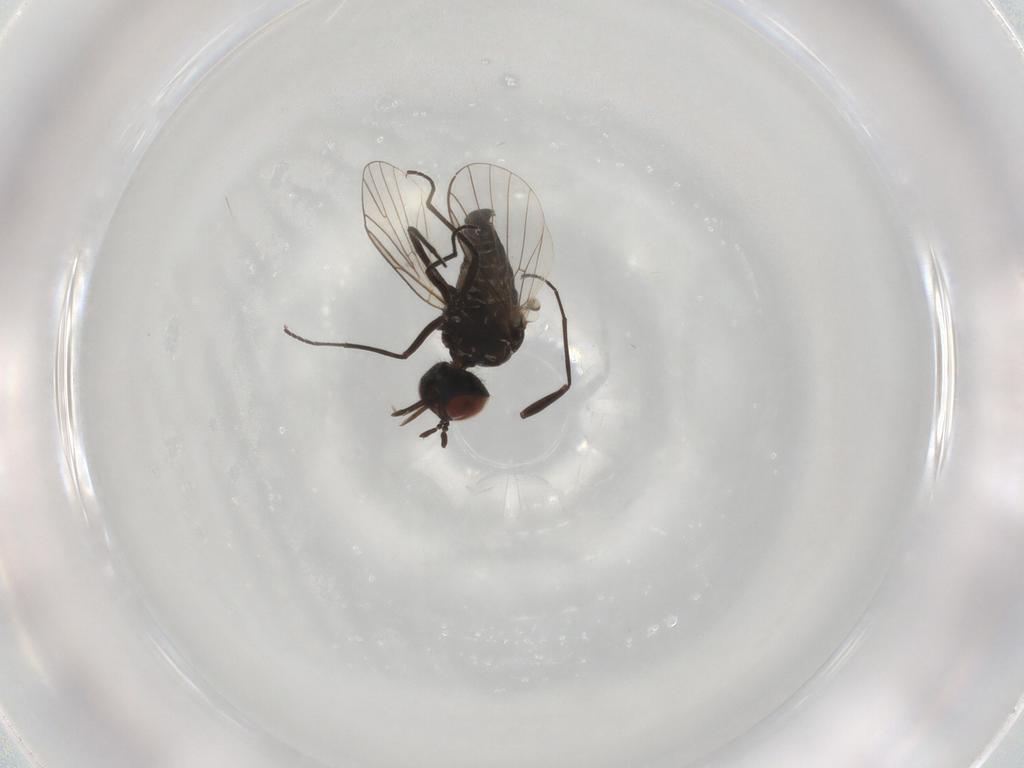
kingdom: Animalia
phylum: Arthropoda
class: Insecta
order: Diptera
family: Bombyliidae
